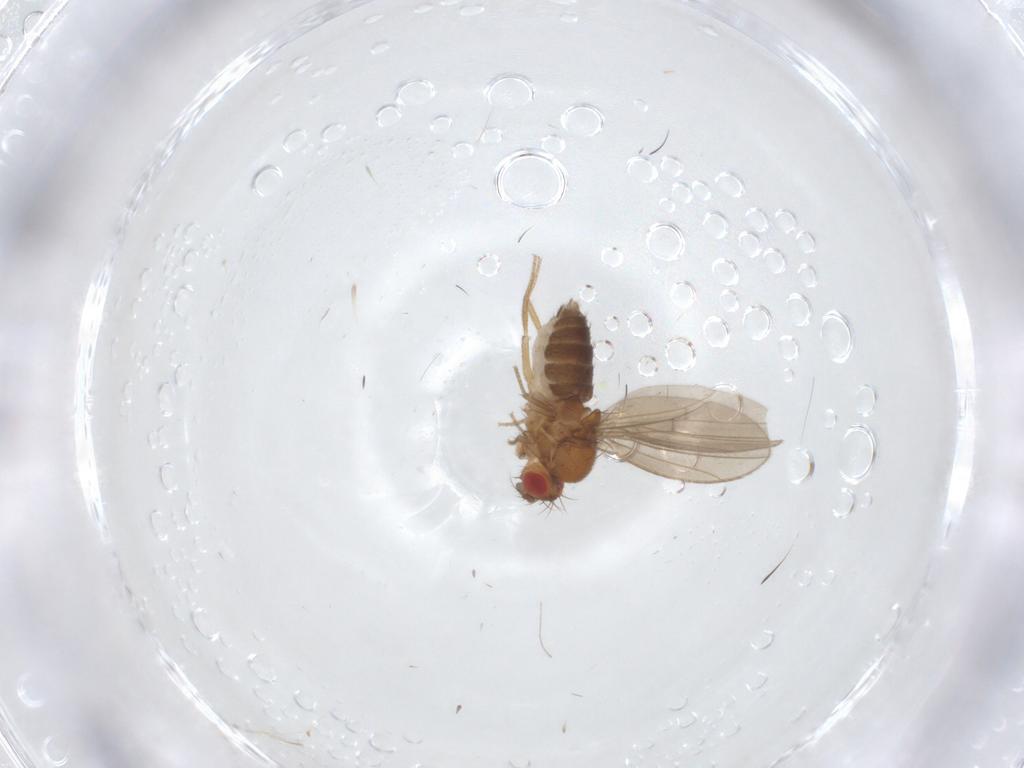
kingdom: Animalia
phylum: Arthropoda
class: Insecta
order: Diptera
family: Drosophilidae
